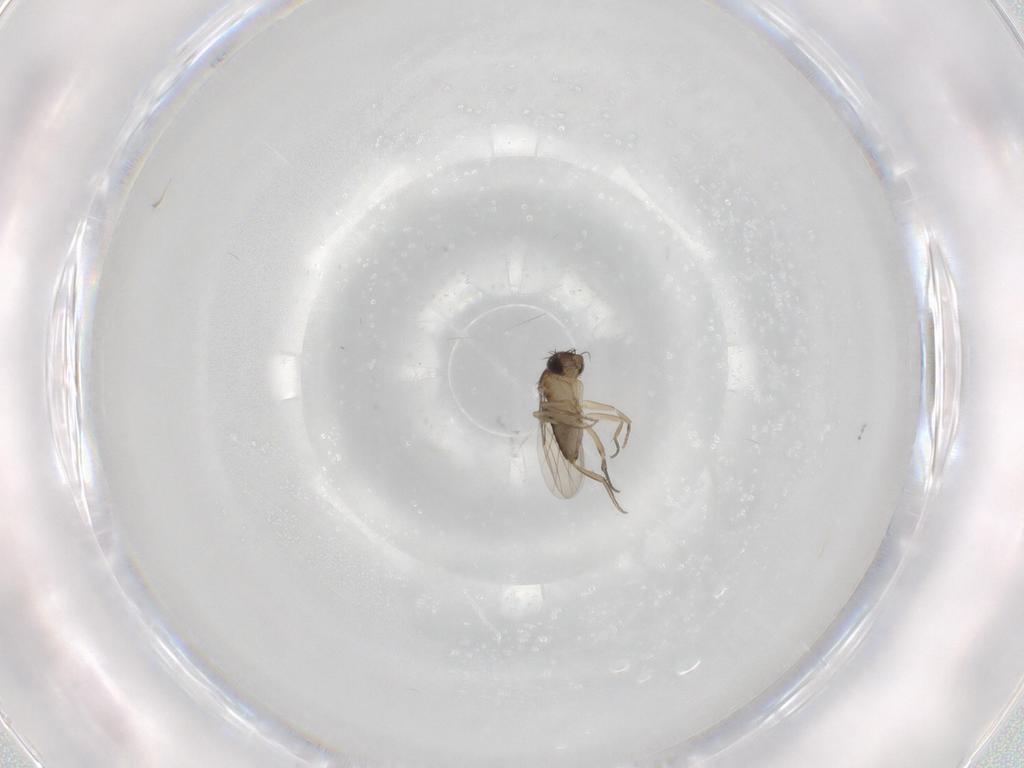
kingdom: Animalia
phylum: Arthropoda
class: Insecta
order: Diptera
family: Phoridae
